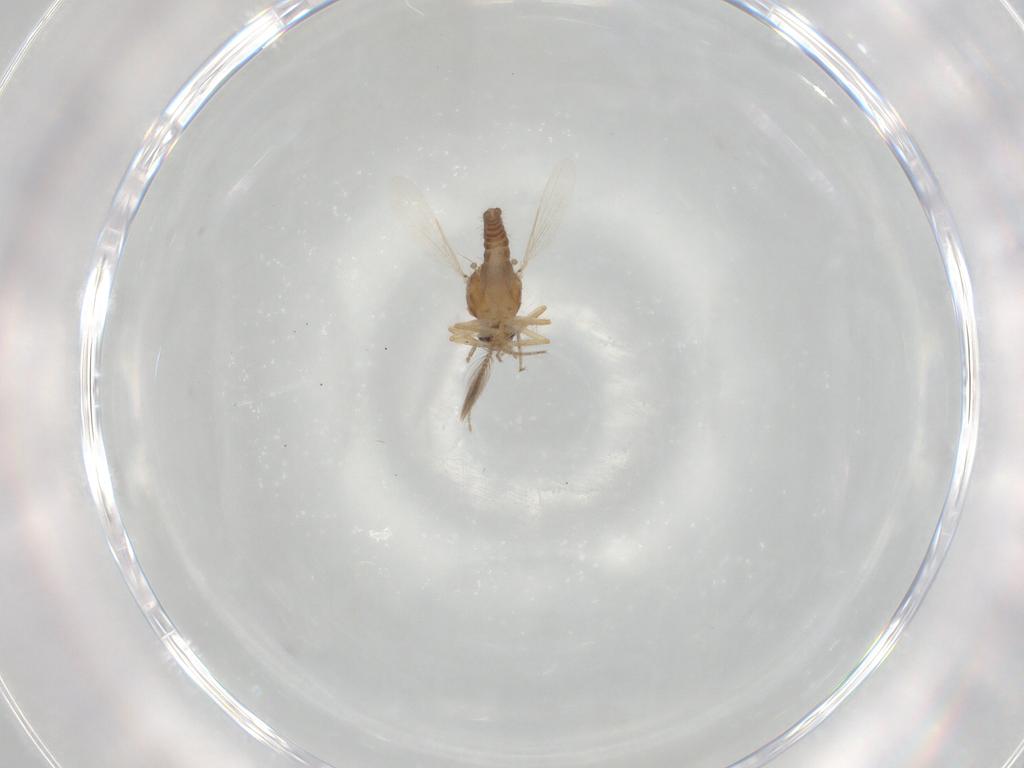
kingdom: Animalia
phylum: Arthropoda
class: Insecta
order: Diptera
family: Ceratopogonidae
